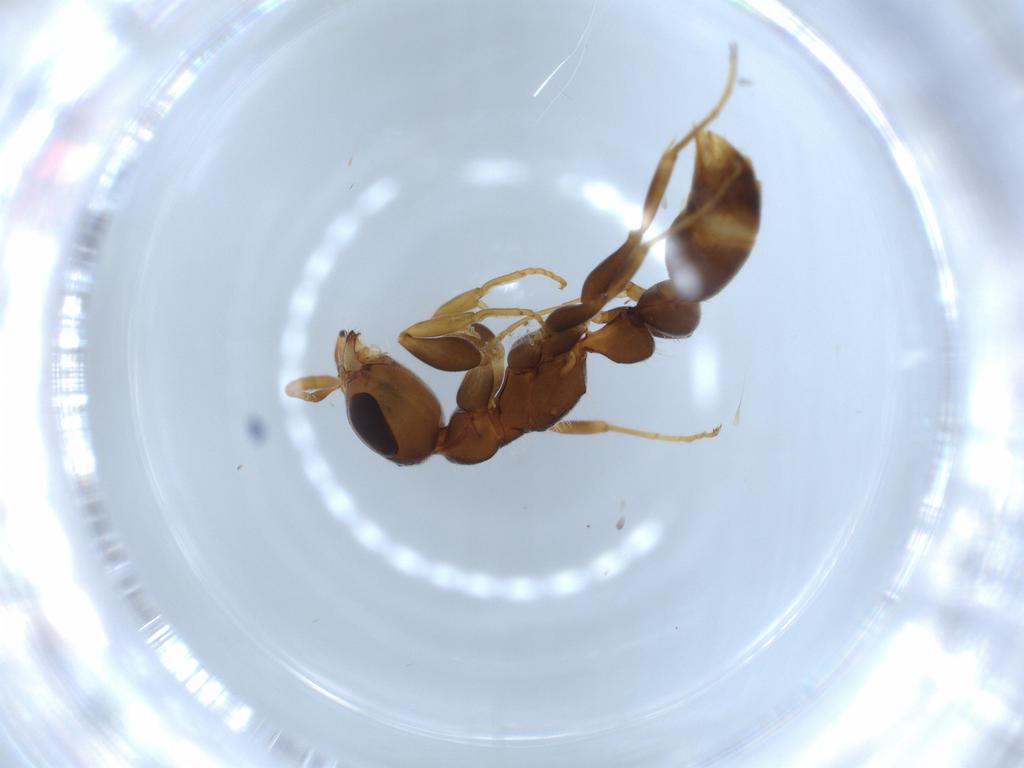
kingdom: Animalia
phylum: Arthropoda
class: Insecta
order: Hymenoptera
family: Formicidae
